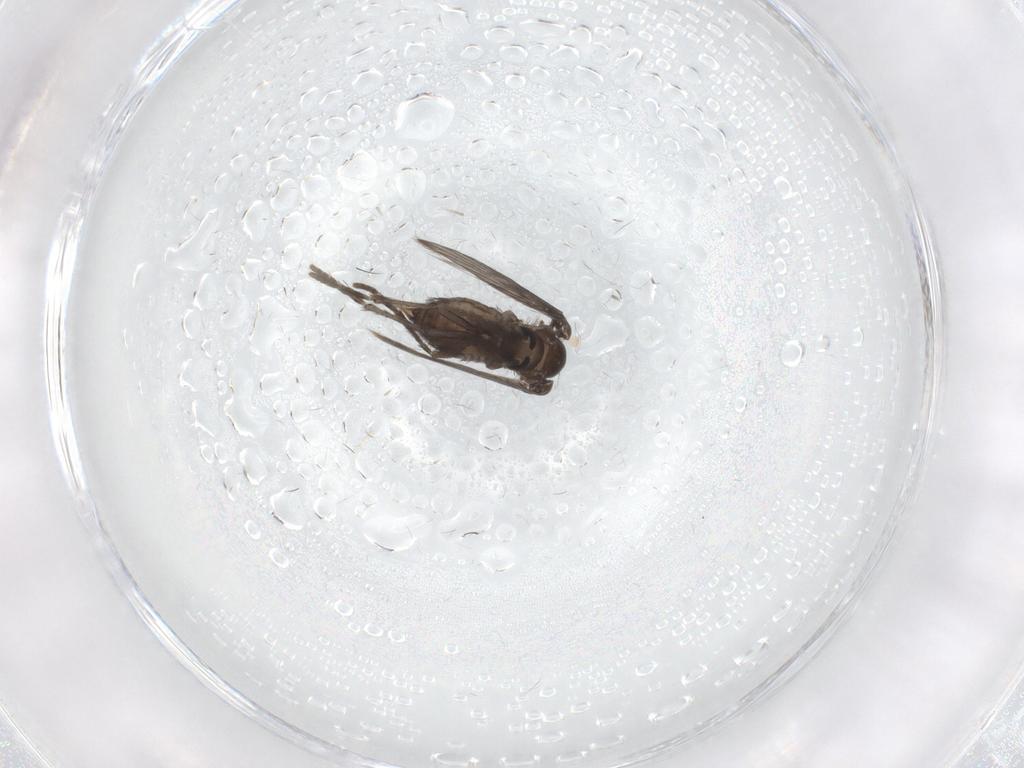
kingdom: Animalia
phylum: Arthropoda
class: Insecta
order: Diptera
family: Psychodidae
